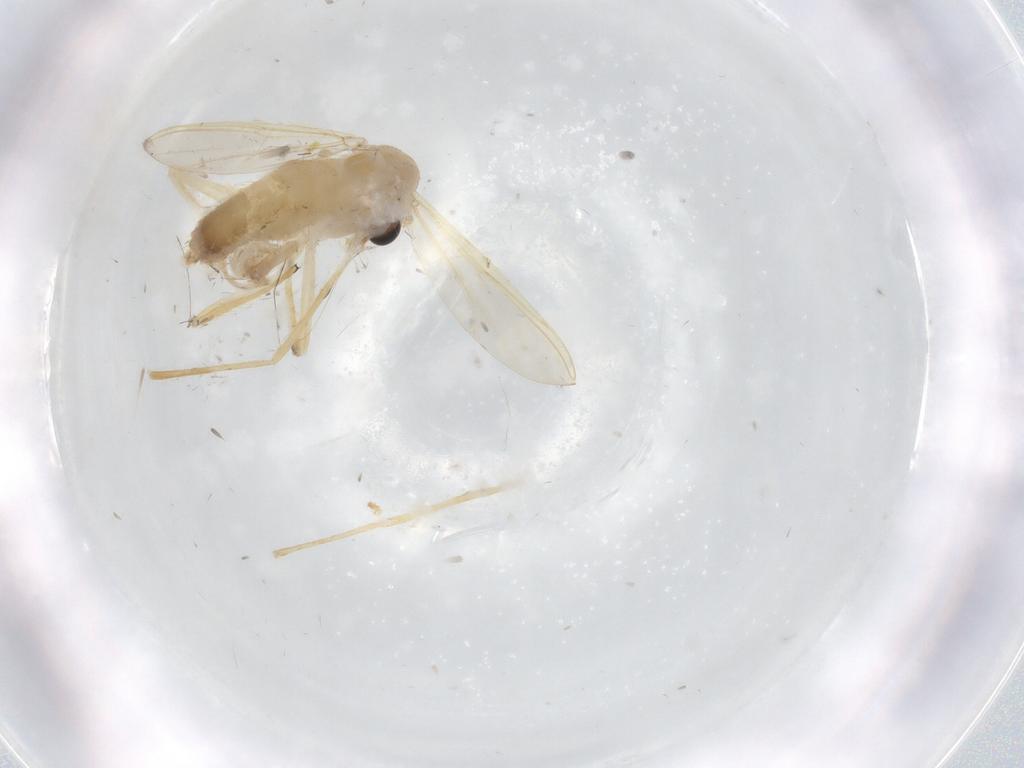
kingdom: Animalia
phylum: Arthropoda
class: Insecta
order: Diptera
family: Chironomidae
